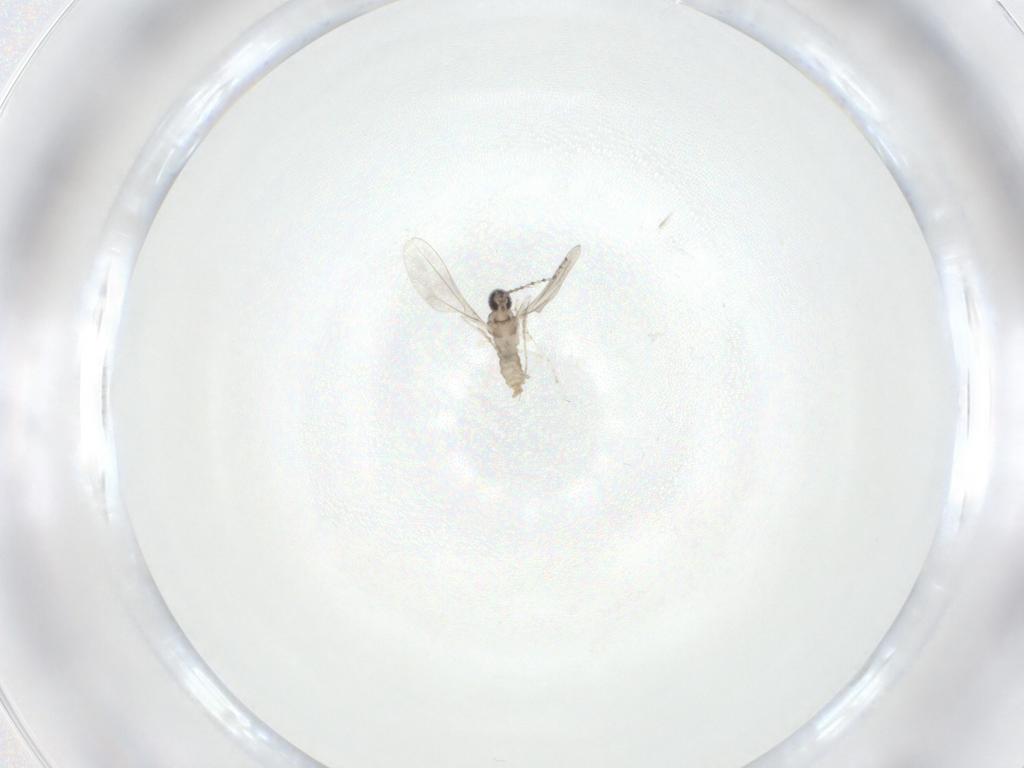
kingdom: Animalia
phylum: Arthropoda
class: Insecta
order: Diptera
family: Cecidomyiidae
